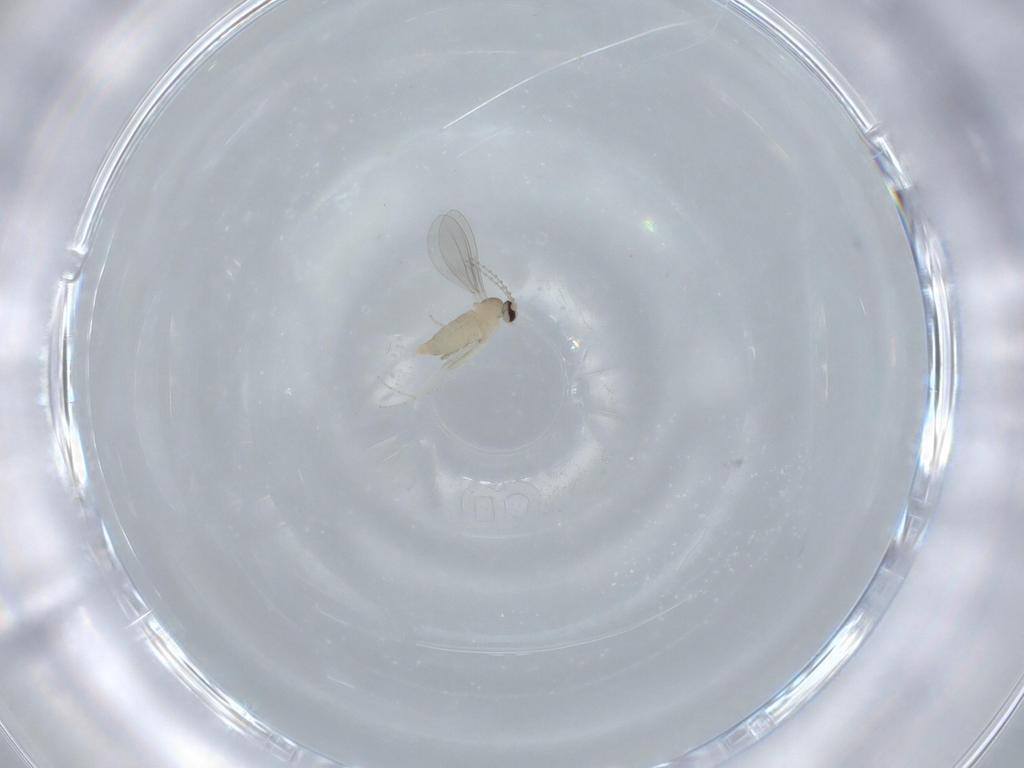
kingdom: Animalia
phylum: Arthropoda
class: Insecta
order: Diptera
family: Cecidomyiidae
